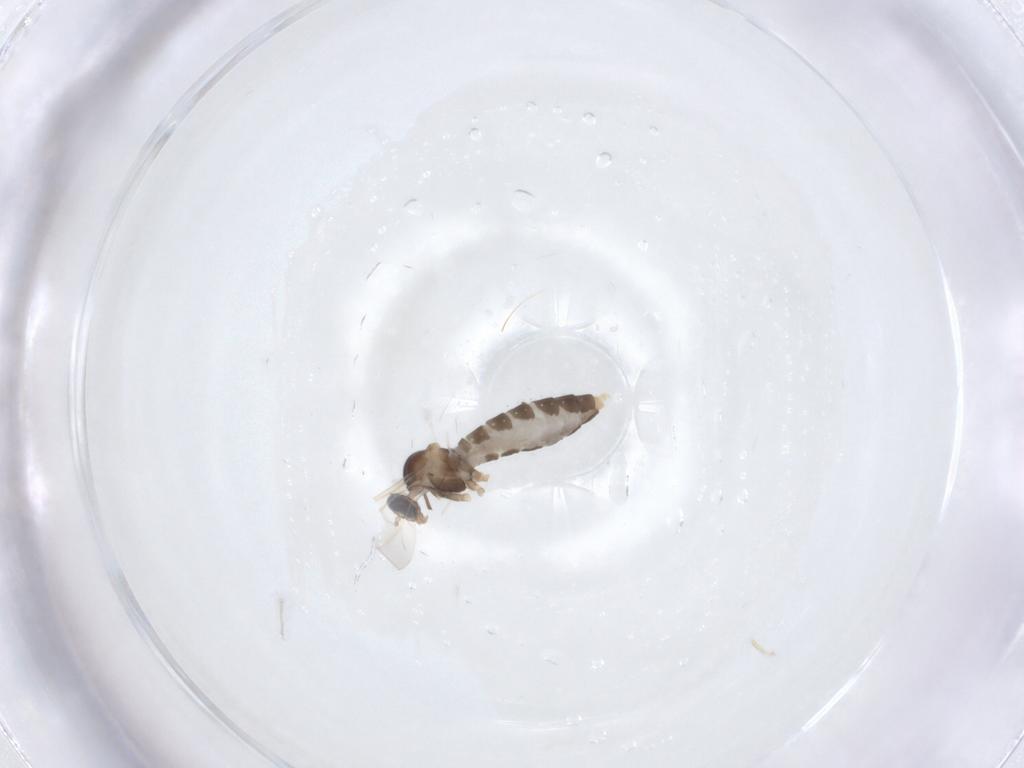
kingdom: Animalia
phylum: Arthropoda
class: Insecta
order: Diptera
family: Cecidomyiidae
